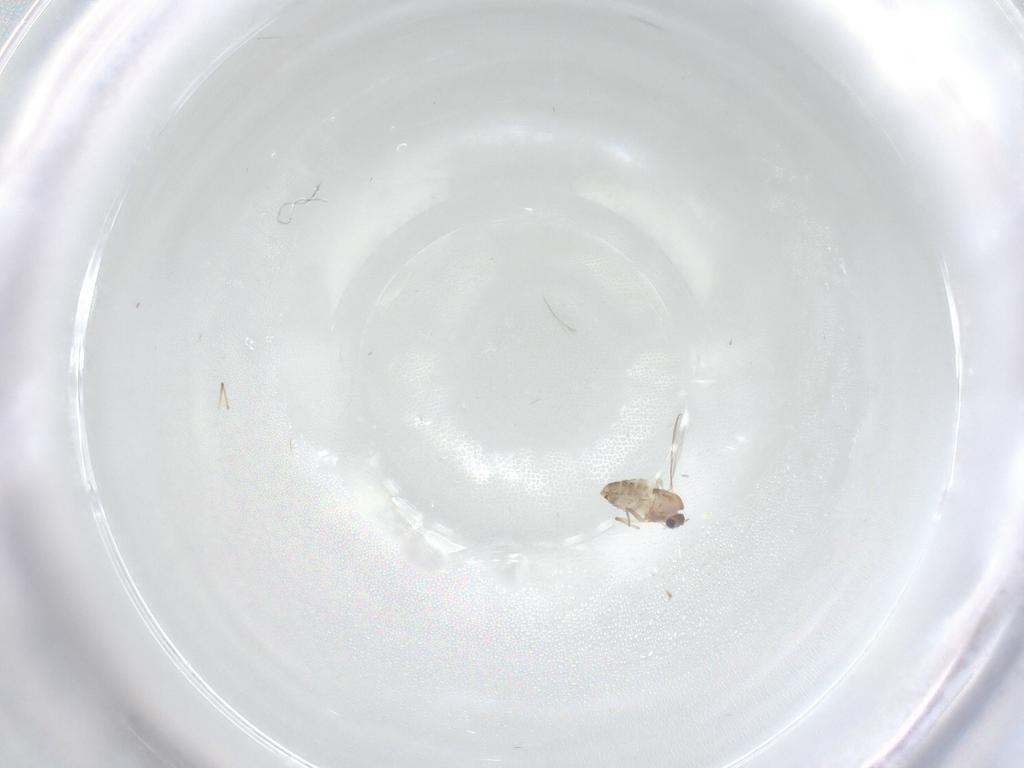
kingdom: Animalia
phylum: Arthropoda
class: Insecta
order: Diptera
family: Chironomidae
